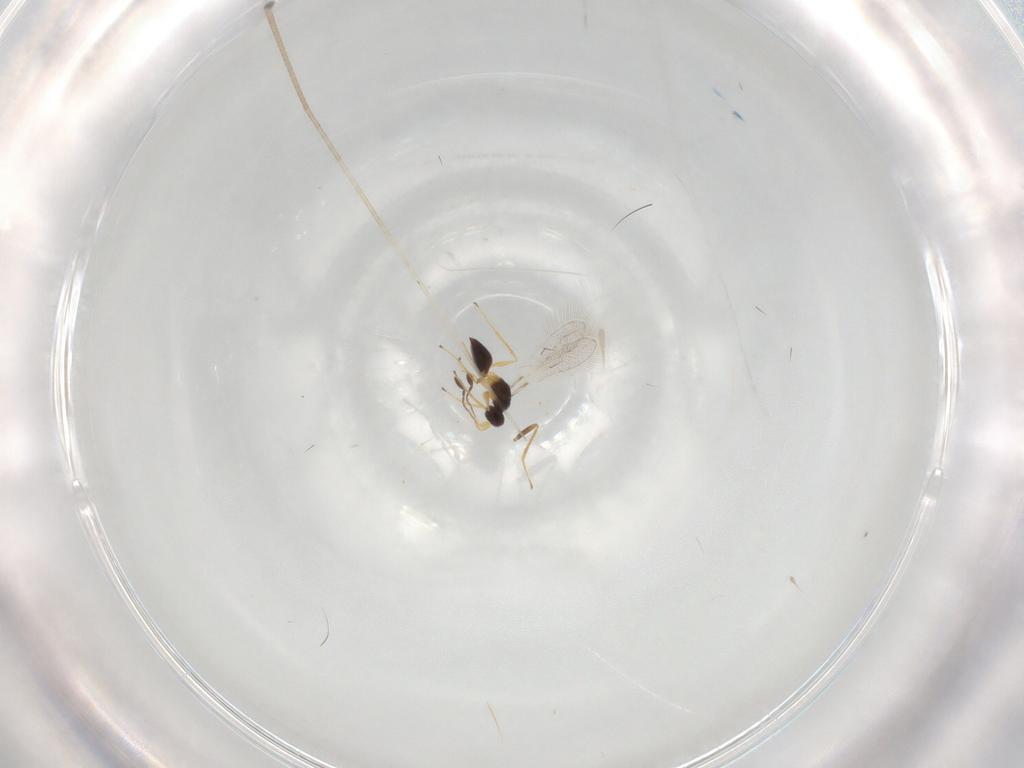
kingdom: Animalia
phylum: Arthropoda
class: Insecta
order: Hymenoptera
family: Mymaridae
